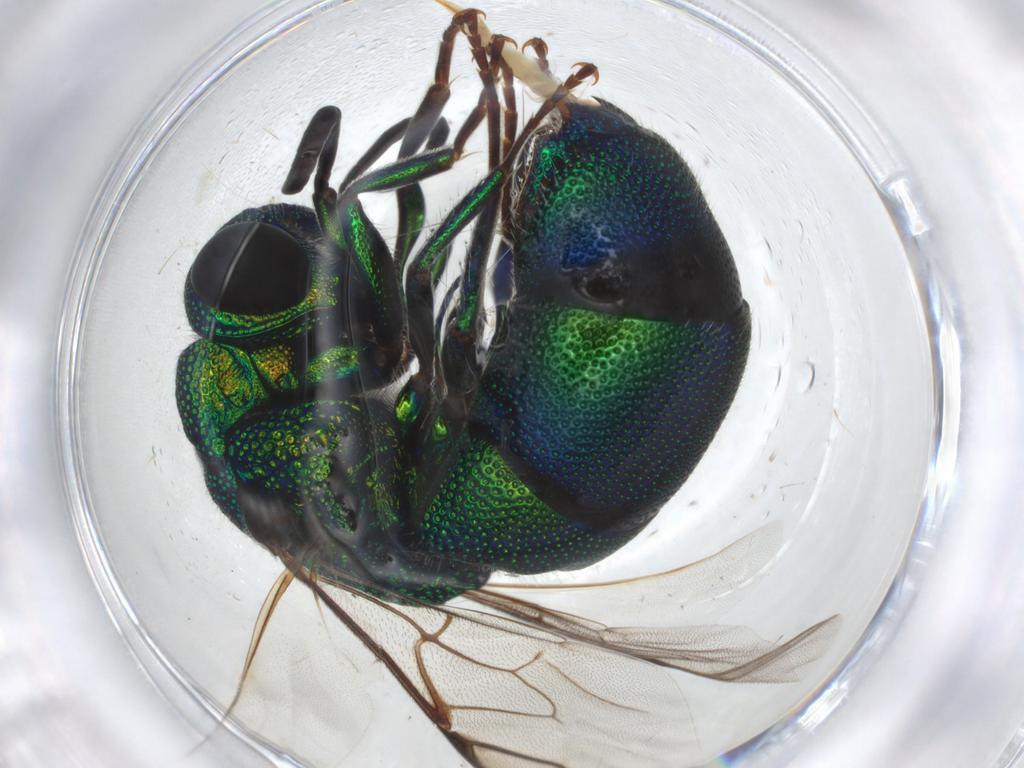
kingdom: Animalia
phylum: Arthropoda
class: Insecta
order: Hymenoptera
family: Chrysididae
